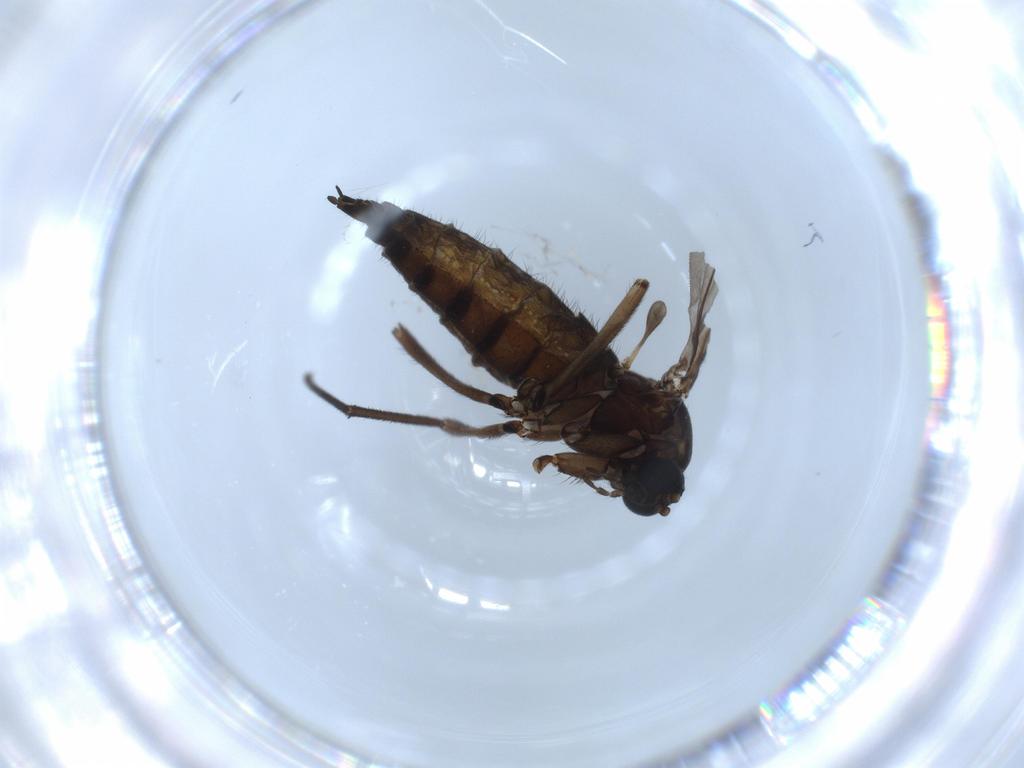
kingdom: Animalia
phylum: Arthropoda
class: Insecta
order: Diptera
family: Sciaridae
